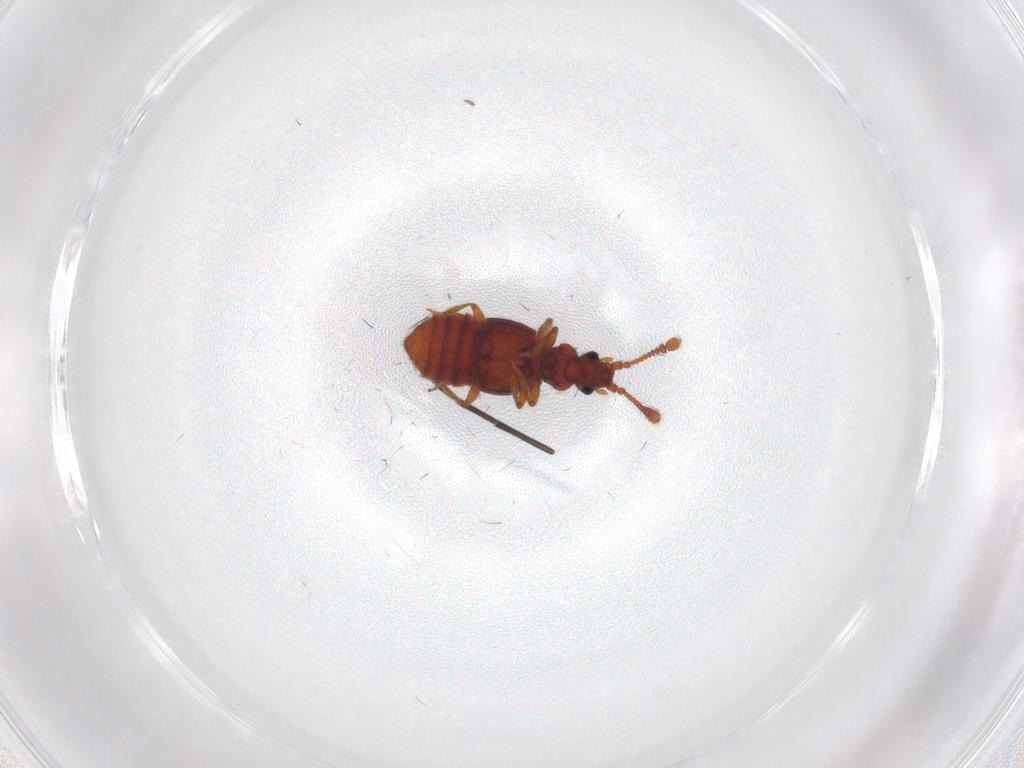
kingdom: Animalia
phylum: Arthropoda
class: Insecta
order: Coleoptera
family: Staphylinidae
